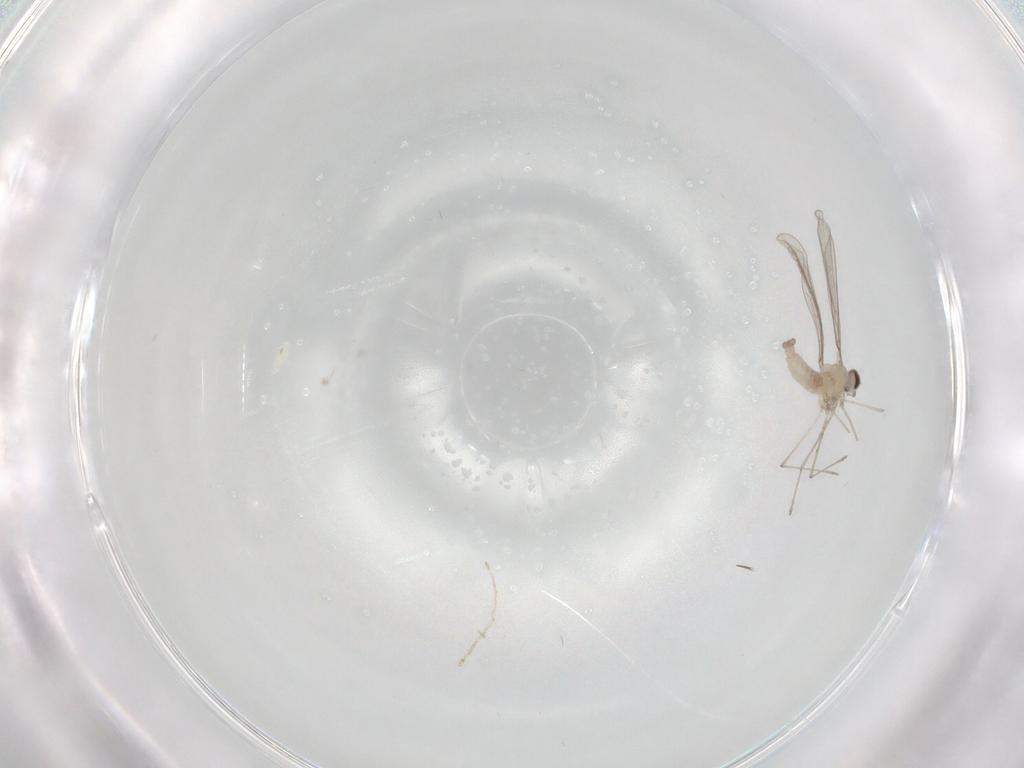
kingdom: Animalia
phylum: Arthropoda
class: Insecta
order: Diptera
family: Cecidomyiidae
